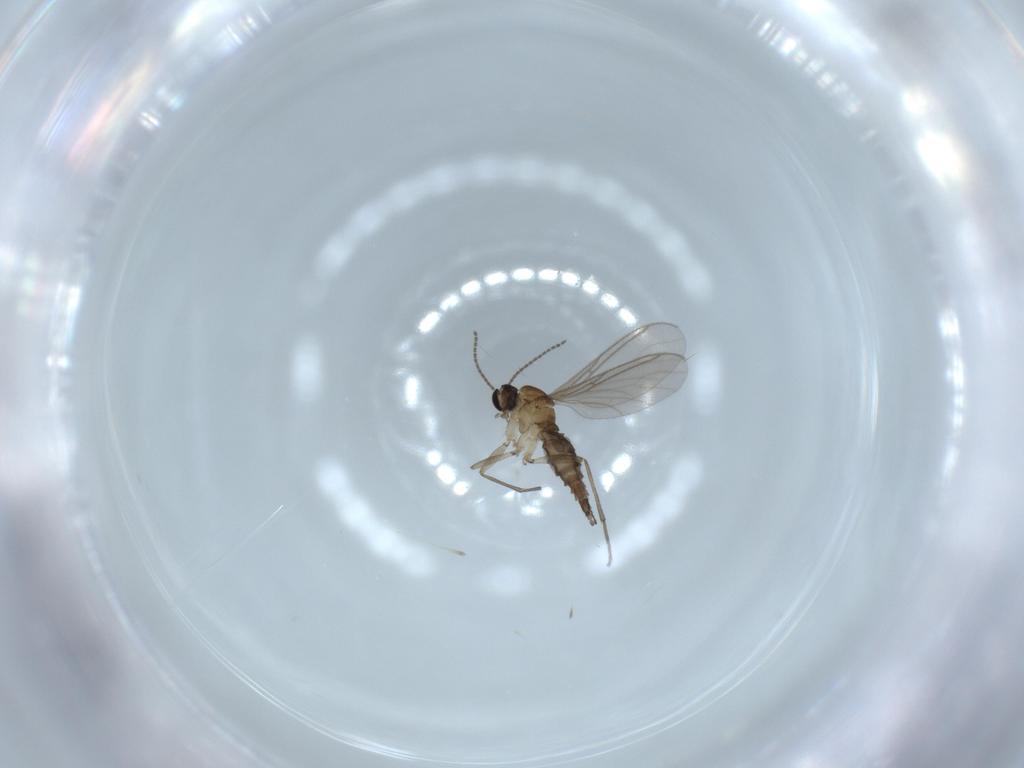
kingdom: Animalia
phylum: Arthropoda
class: Insecta
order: Diptera
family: Sciaridae
